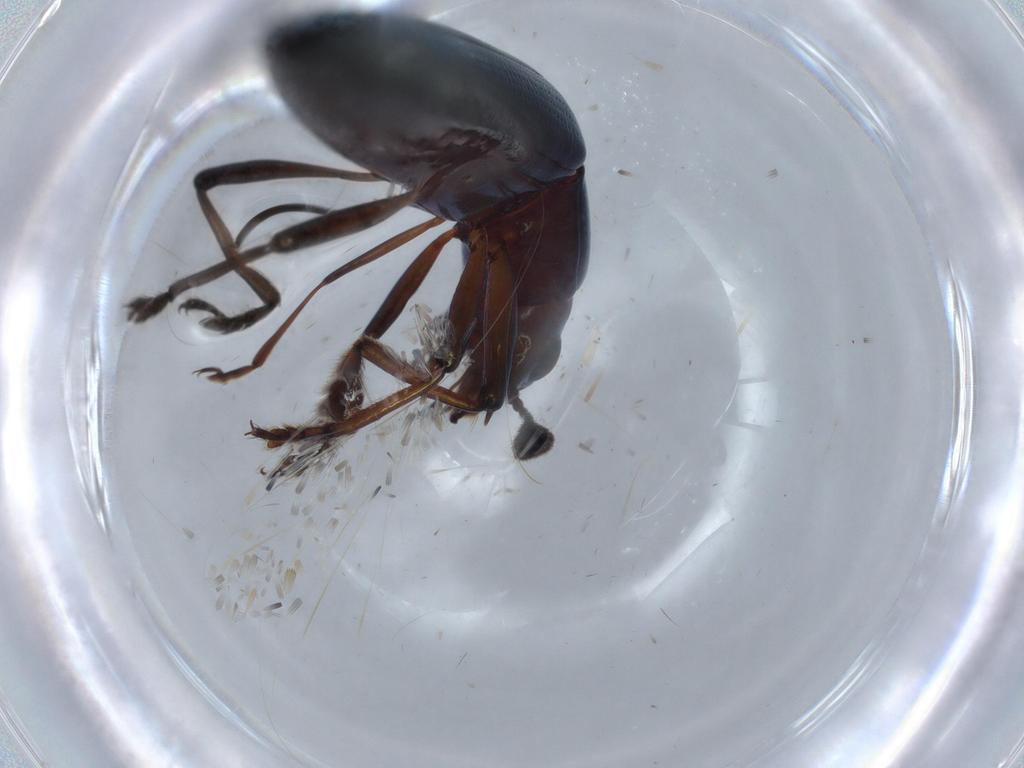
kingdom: Animalia
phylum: Arthropoda
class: Insecta
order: Coleoptera
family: Erotylidae
